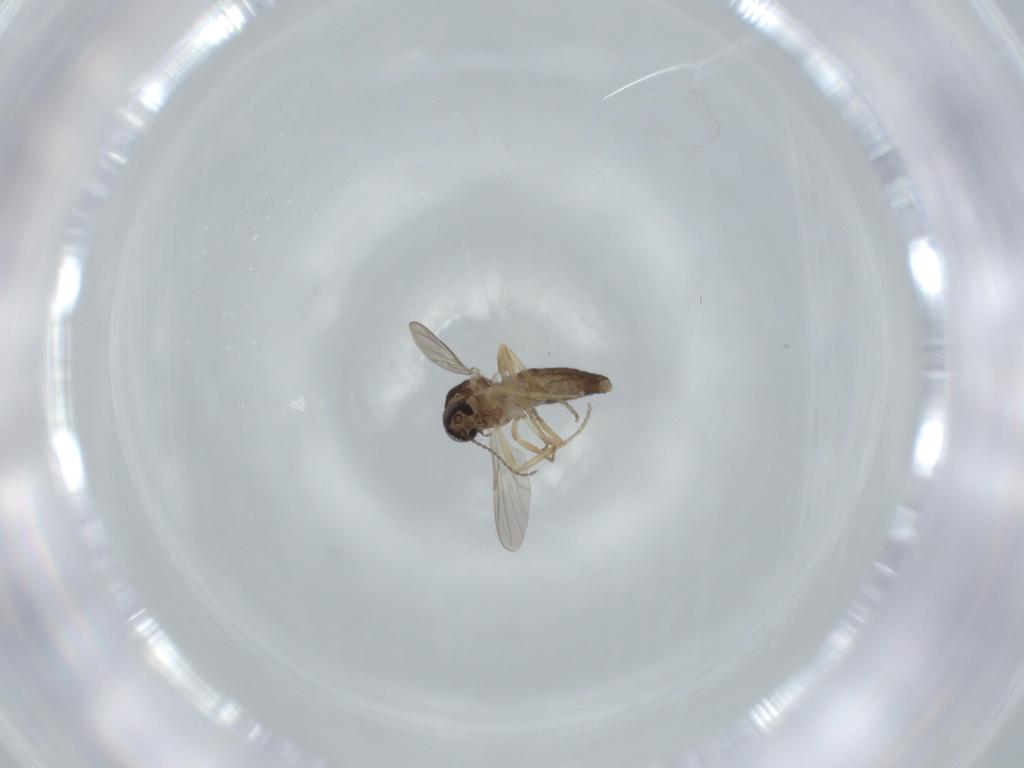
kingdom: Animalia
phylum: Arthropoda
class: Insecta
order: Diptera
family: Ceratopogonidae
